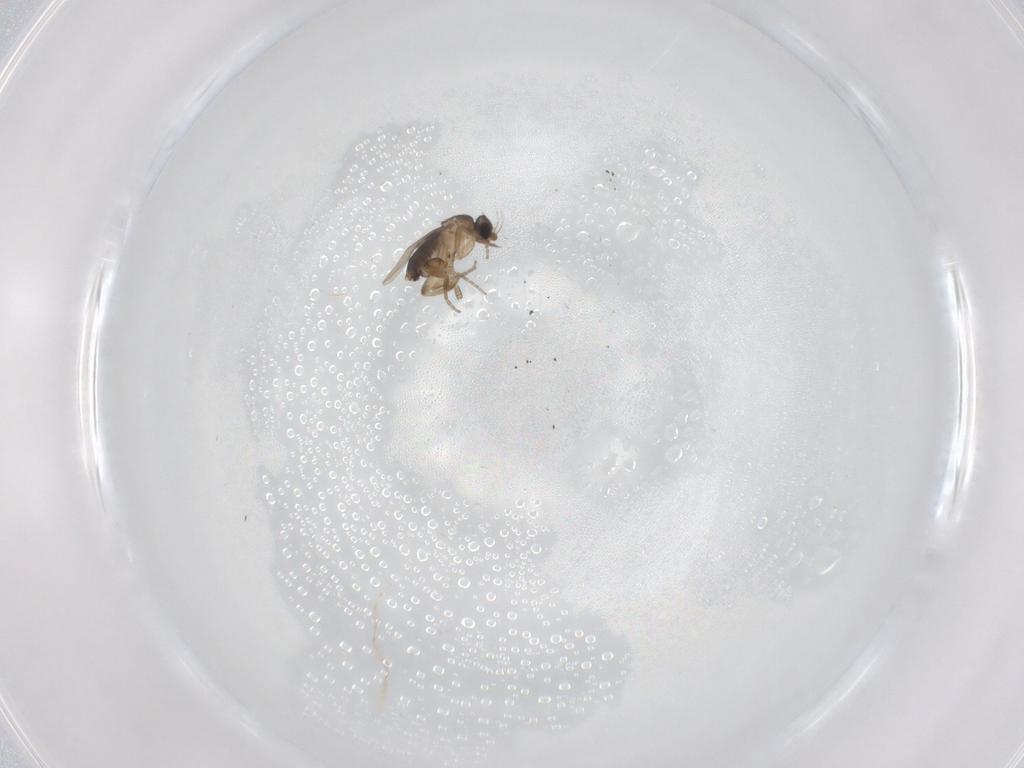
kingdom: Animalia
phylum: Arthropoda
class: Insecta
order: Diptera
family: Phoridae
